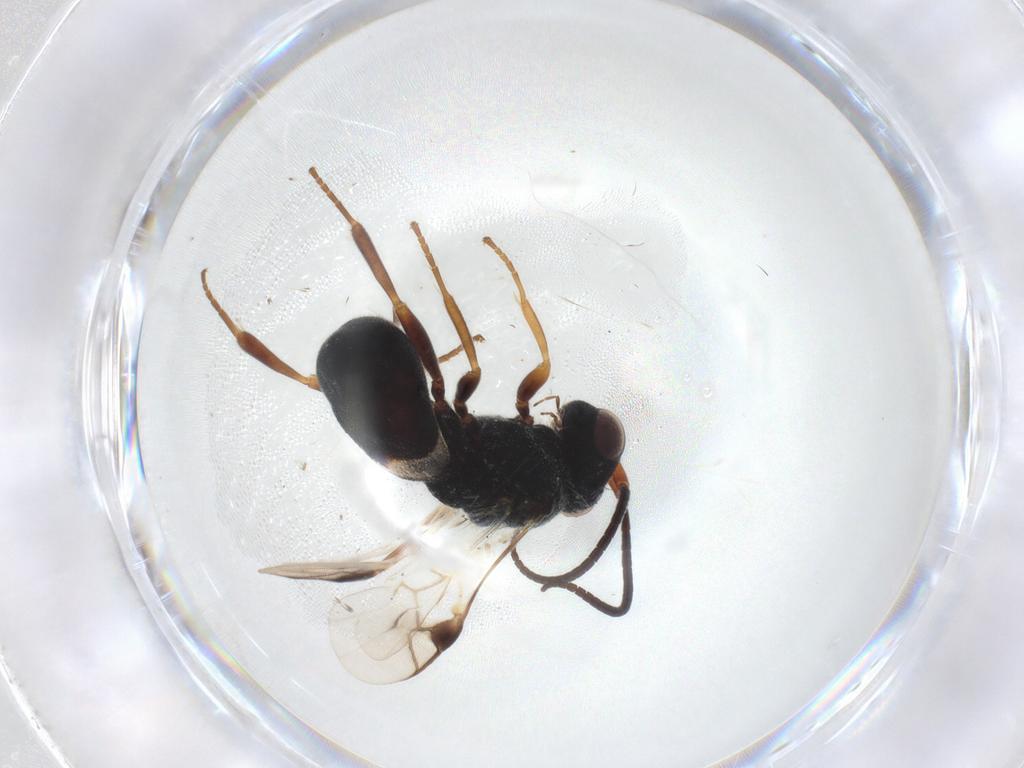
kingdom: Animalia
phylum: Arthropoda
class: Insecta
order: Hymenoptera
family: Braconidae
